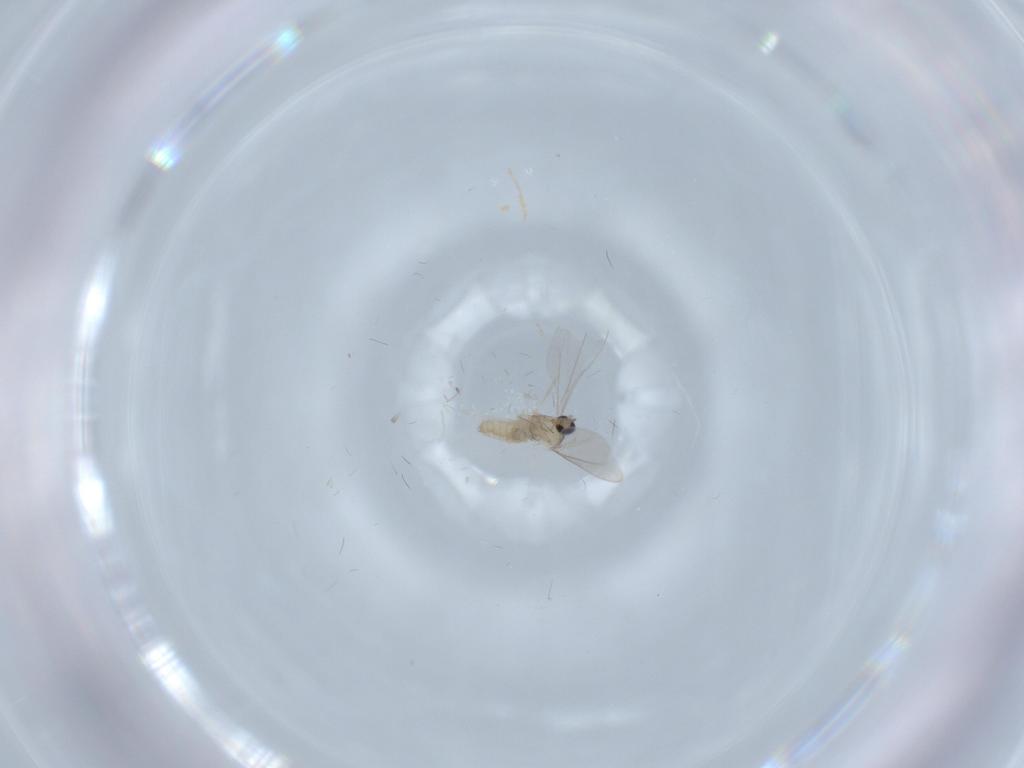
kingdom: Animalia
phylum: Arthropoda
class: Insecta
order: Diptera
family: Cecidomyiidae
